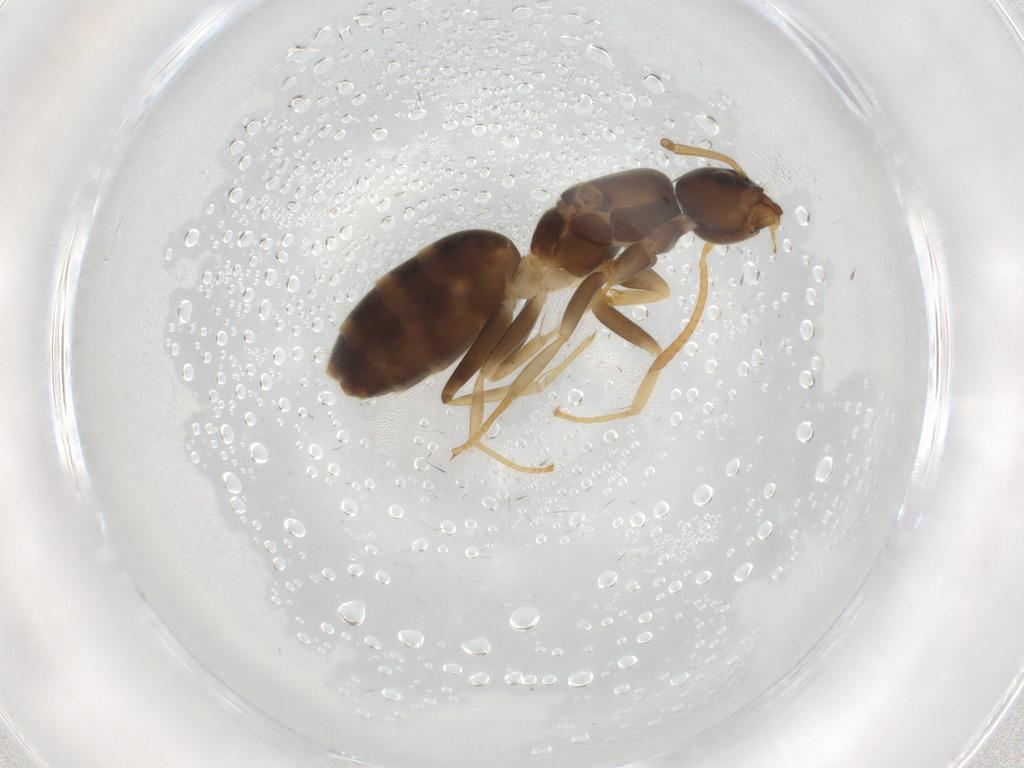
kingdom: Animalia
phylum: Arthropoda
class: Insecta
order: Hymenoptera
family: Formicidae
